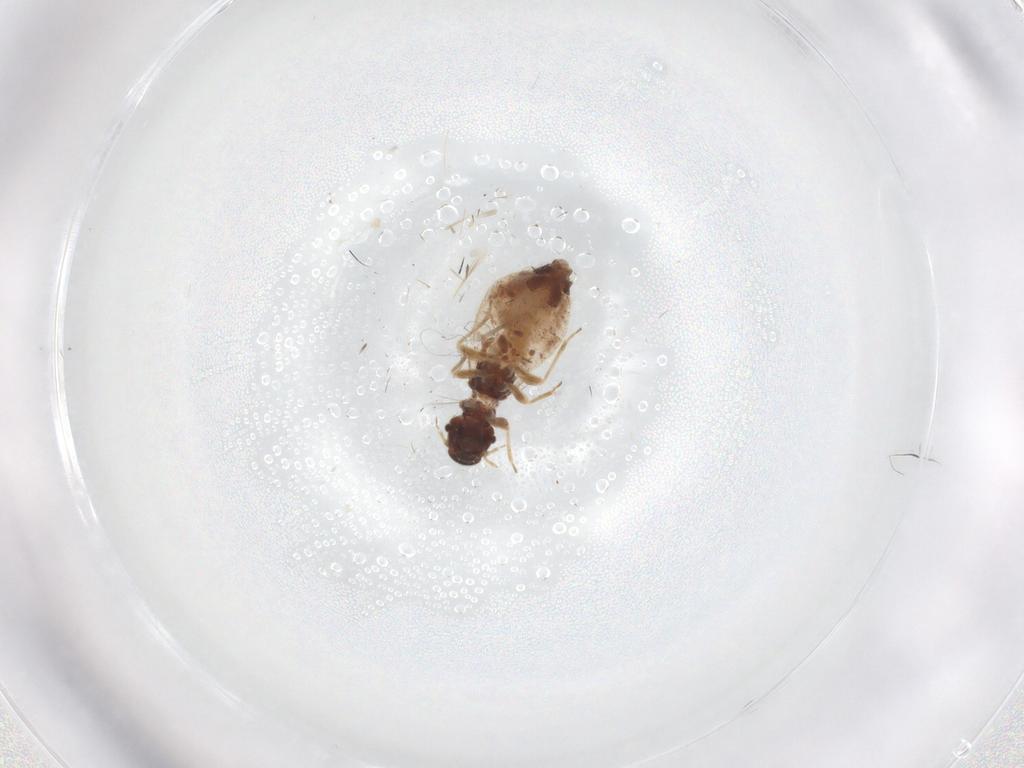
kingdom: Animalia
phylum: Arthropoda
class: Insecta
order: Psocodea
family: Archipsocidae
